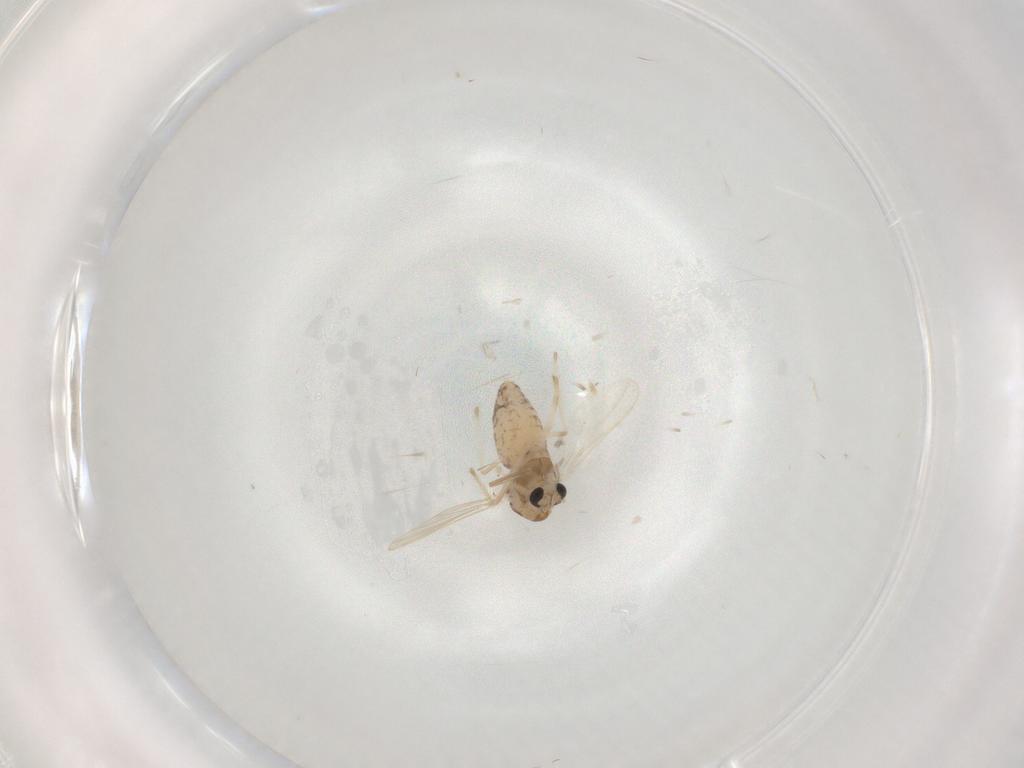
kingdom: Animalia
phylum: Arthropoda
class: Insecta
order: Diptera
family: Chironomidae
